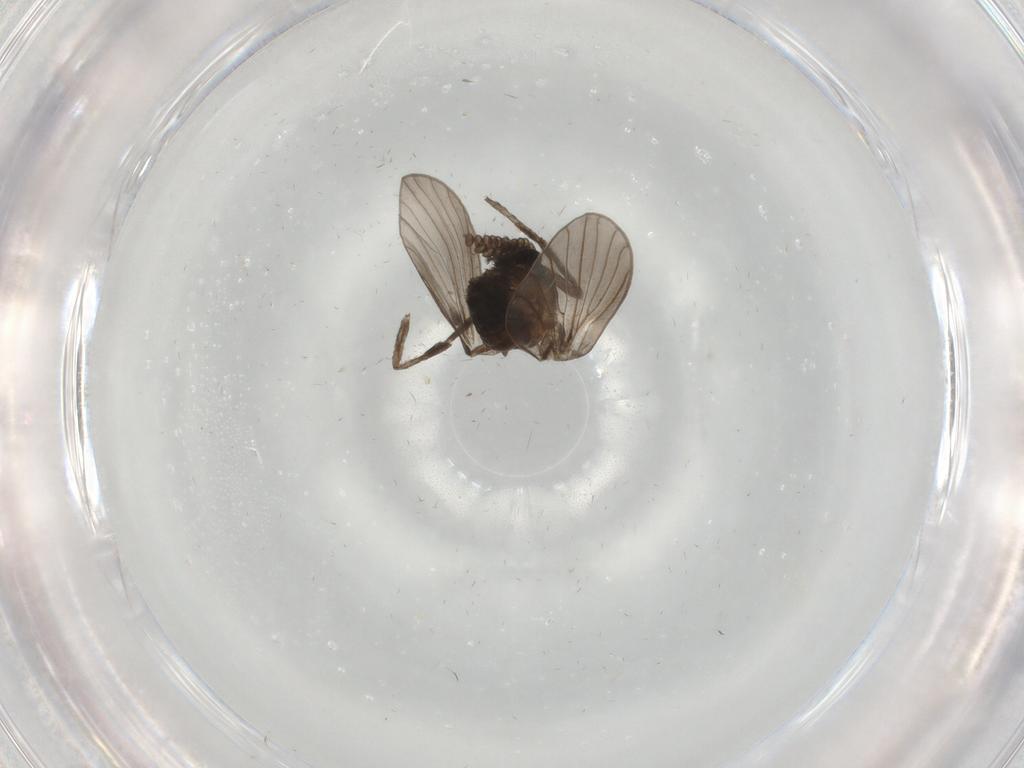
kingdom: Animalia
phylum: Arthropoda
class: Insecta
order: Diptera
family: Psychodidae
